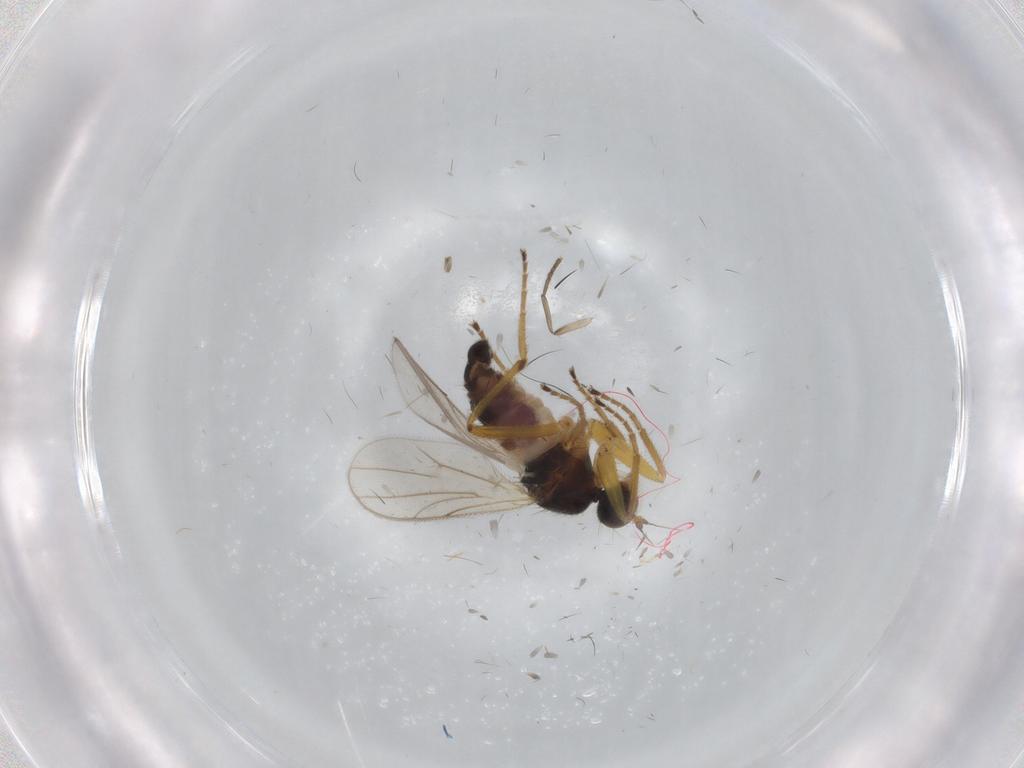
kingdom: Animalia
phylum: Arthropoda
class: Insecta
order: Diptera
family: Hybotidae
